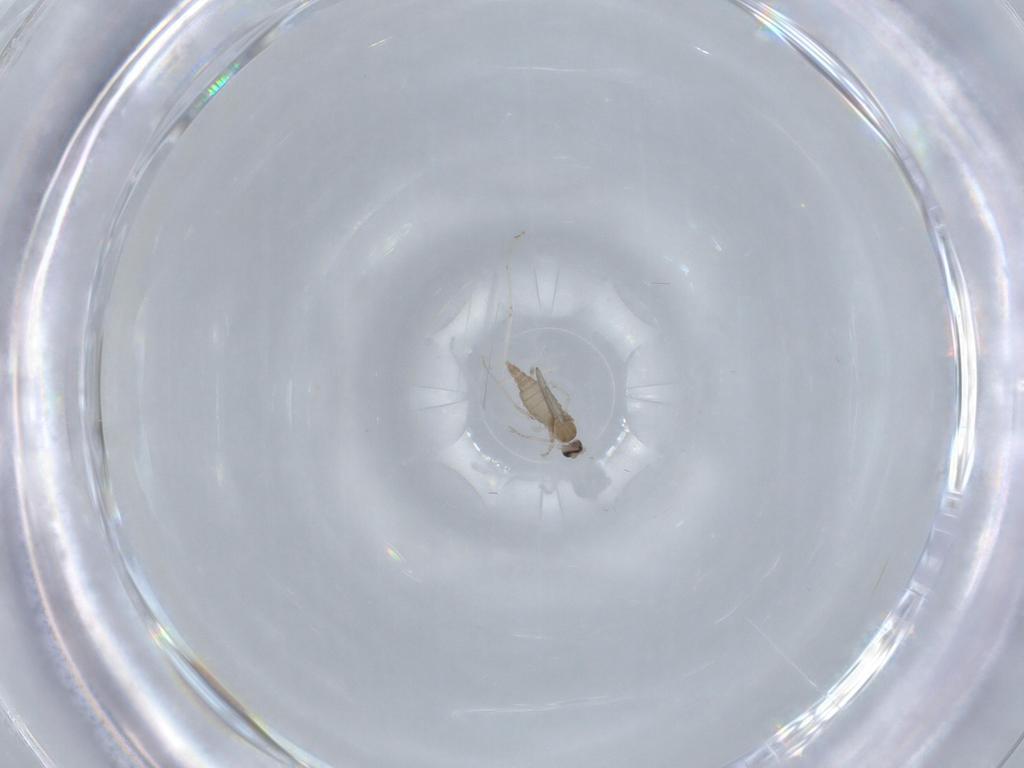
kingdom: Animalia
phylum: Arthropoda
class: Insecta
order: Diptera
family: Cecidomyiidae
